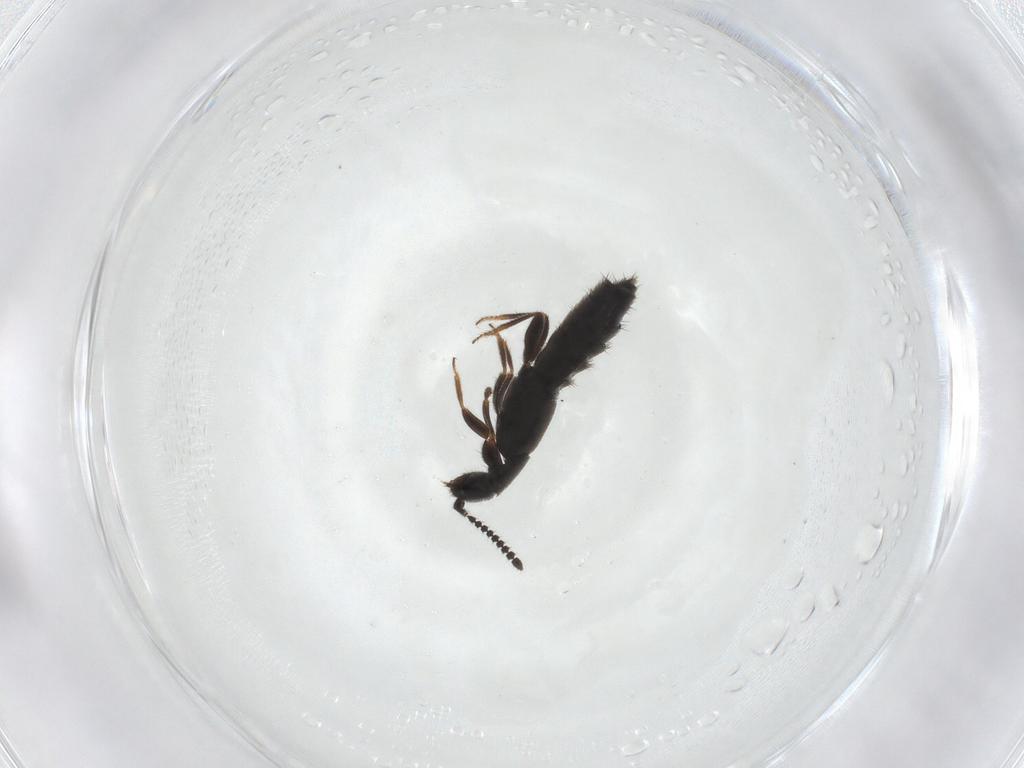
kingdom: Animalia
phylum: Arthropoda
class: Insecta
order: Coleoptera
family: Staphylinidae
